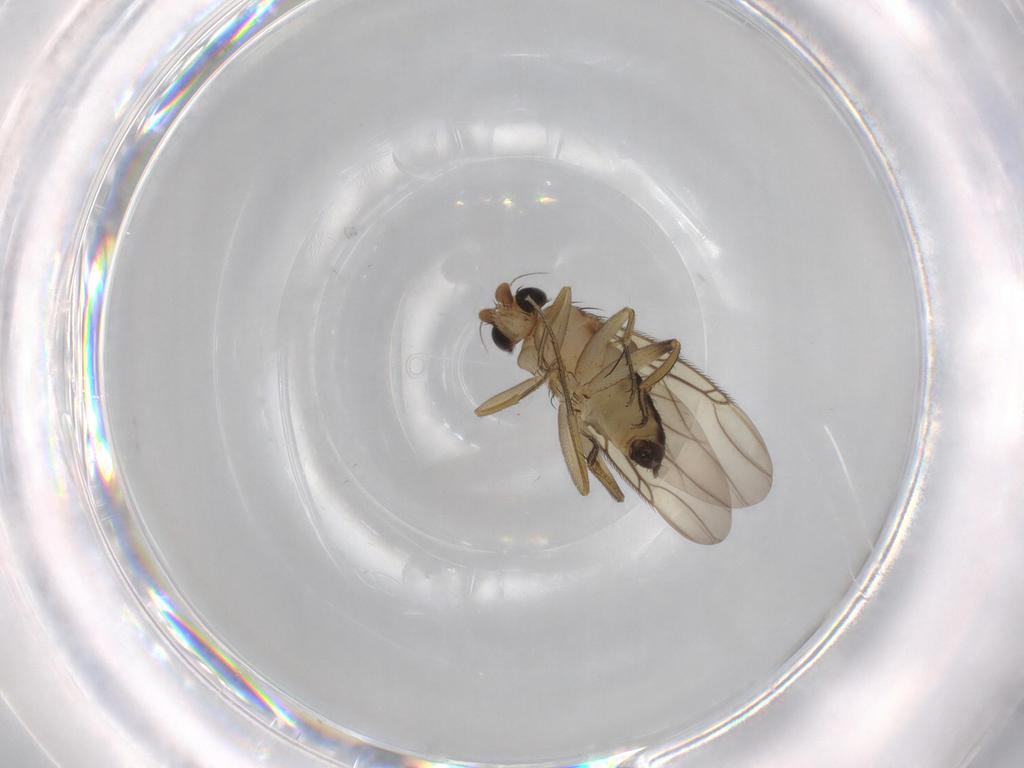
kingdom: Animalia
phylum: Arthropoda
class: Insecta
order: Diptera
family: Phoridae
